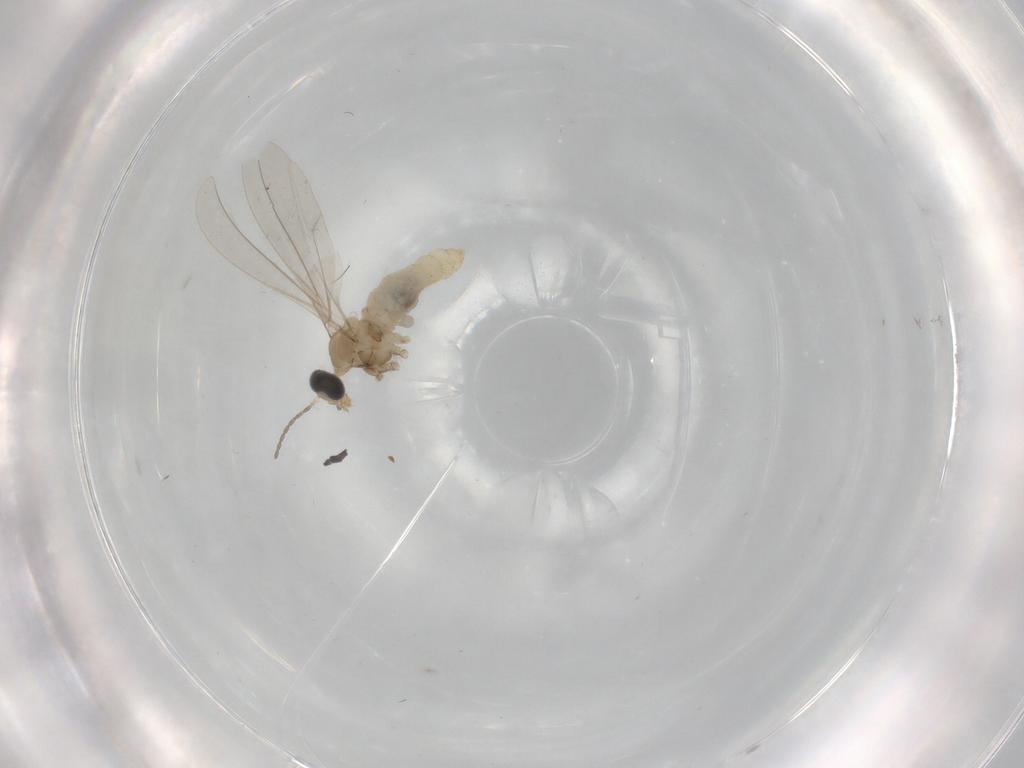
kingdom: Animalia
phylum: Arthropoda
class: Insecta
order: Diptera
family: Cecidomyiidae
